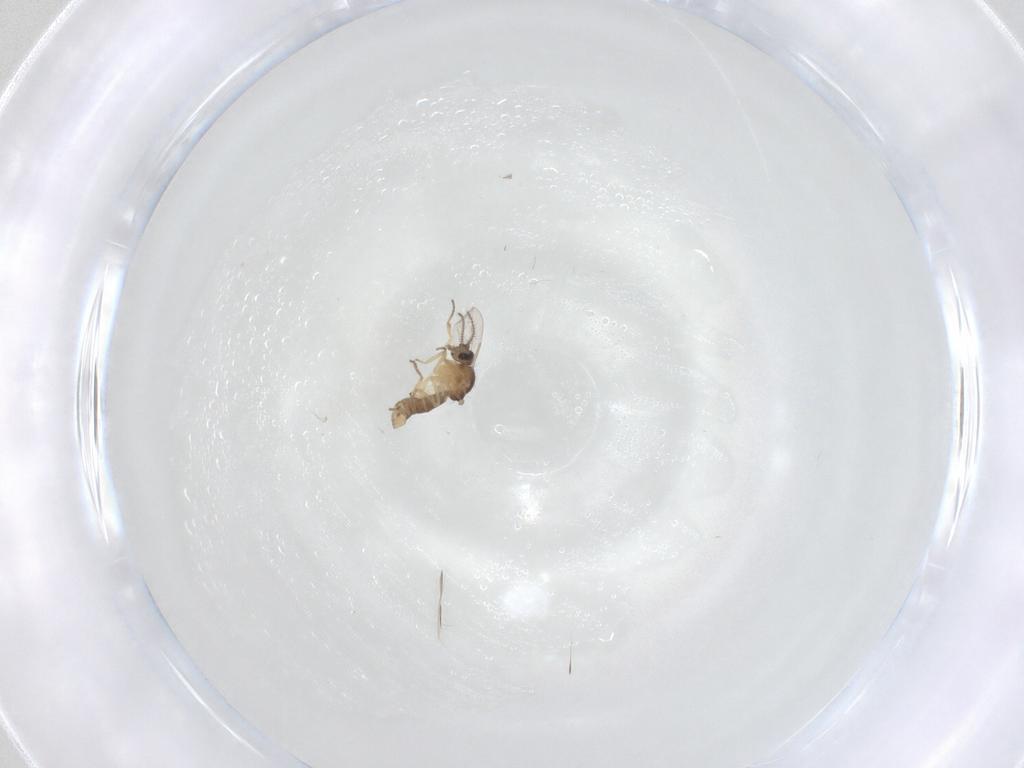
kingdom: Animalia
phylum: Arthropoda
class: Insecta
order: Diptera
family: Ceratopogonidae
